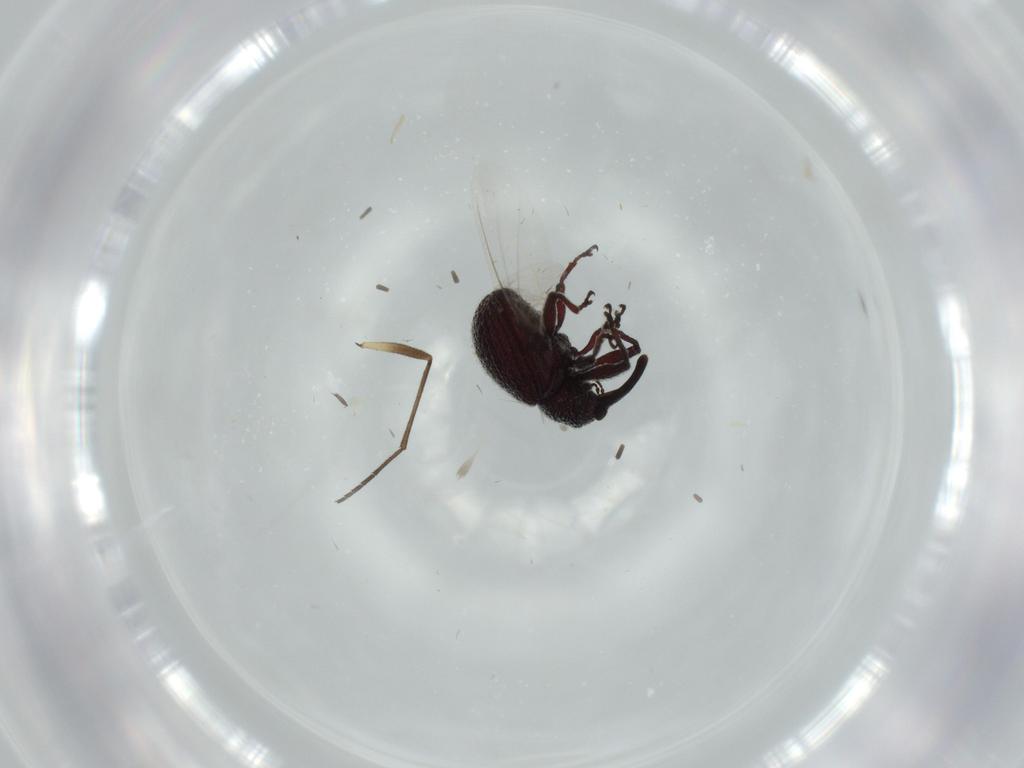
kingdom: Animalia
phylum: Arthropoda
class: Insecta
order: Coleoptera
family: Curculionidae
